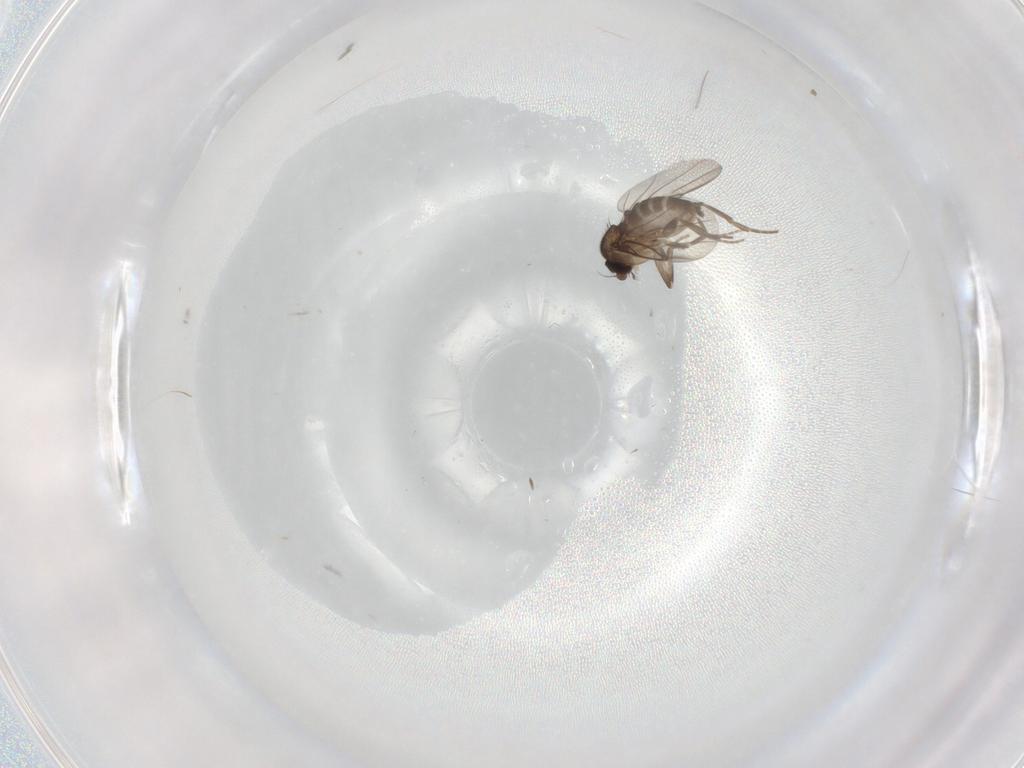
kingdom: Animalia
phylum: Arthropoda
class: Insecta
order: Diptera
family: Phoridae
